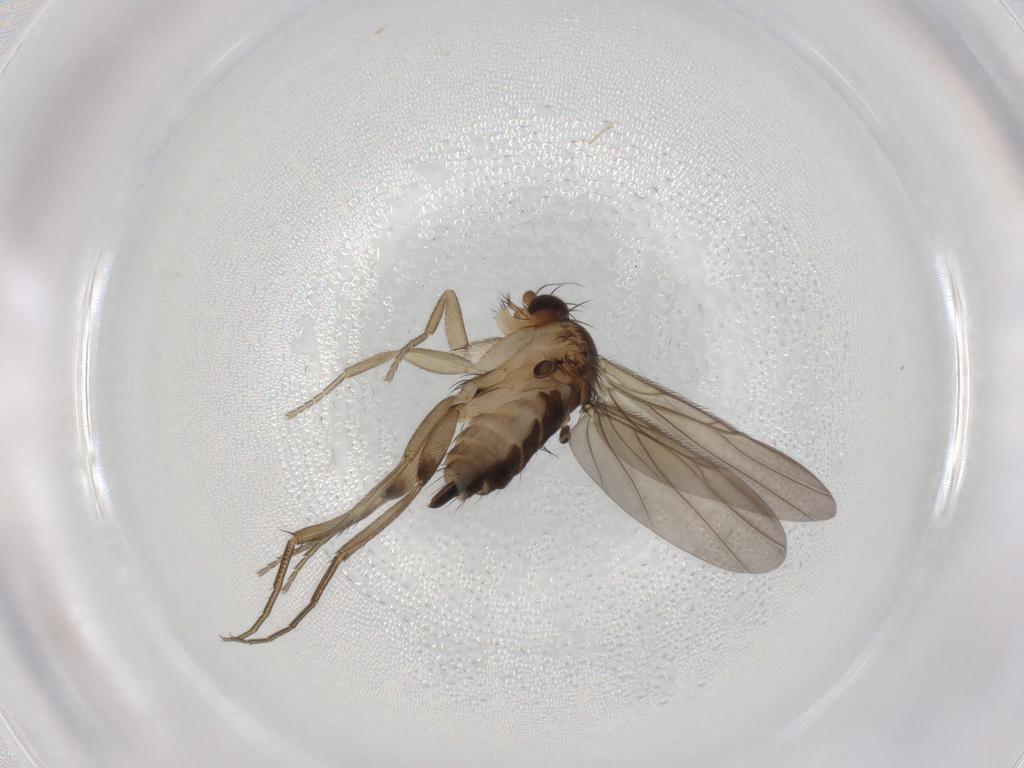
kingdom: Animalia
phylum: Arthropoda
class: Insecta
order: Diptera
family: Phoridae
